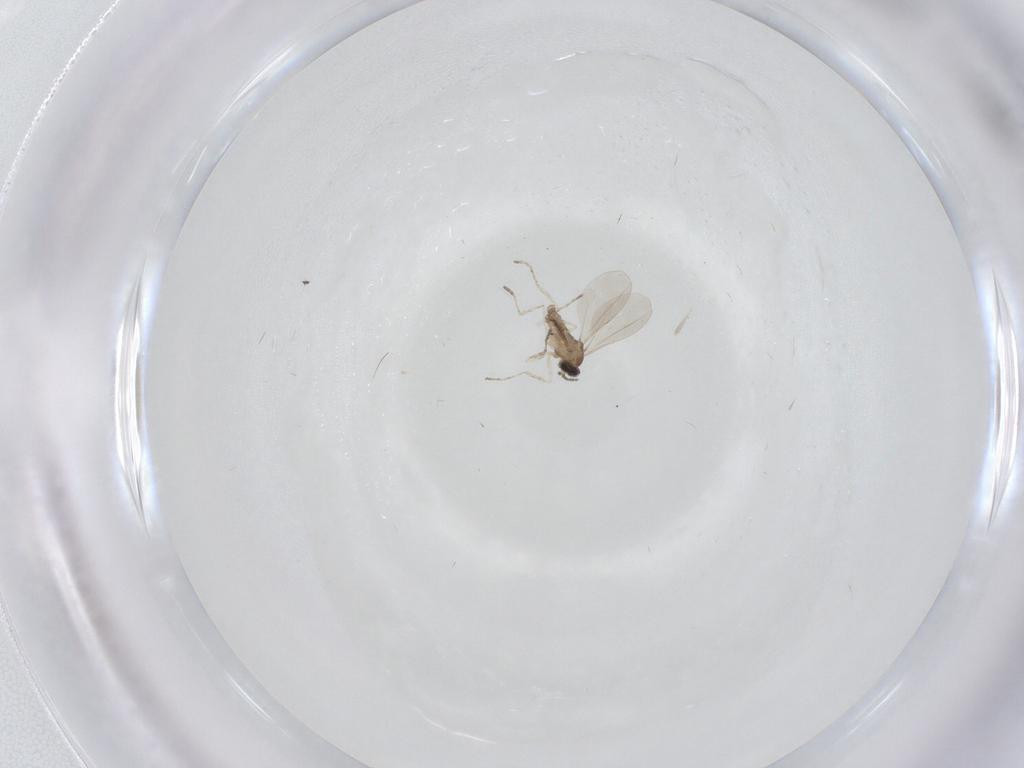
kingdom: Animalia
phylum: Arthropoda
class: Insecta
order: Diptera
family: Cecidomyiidae
